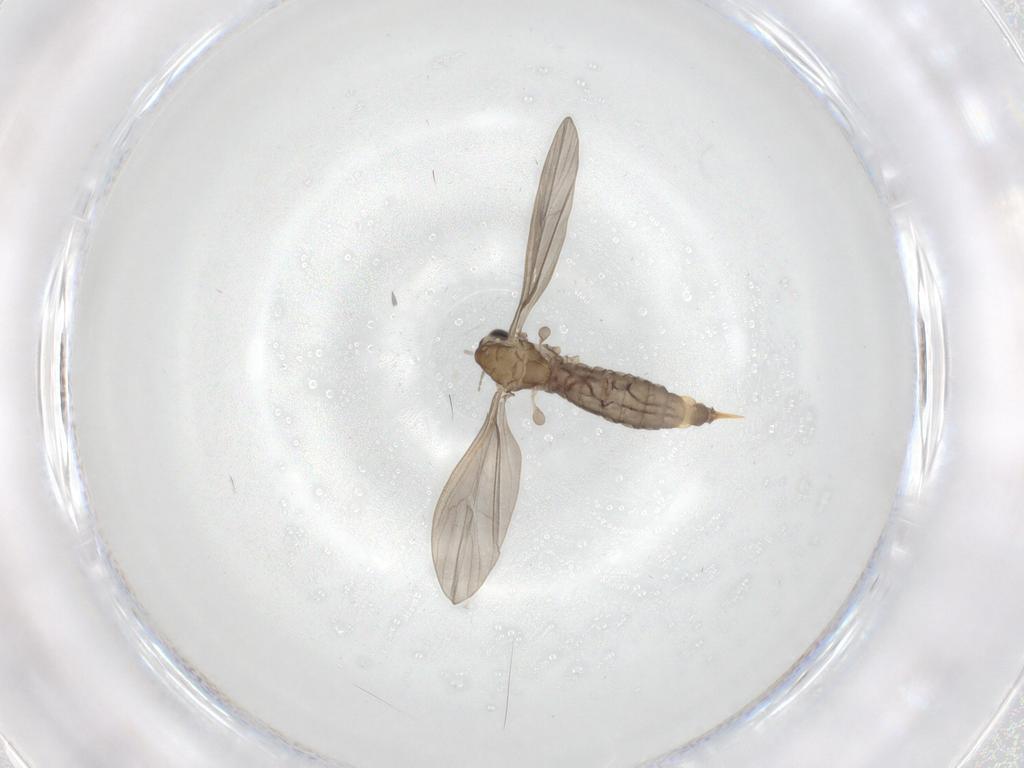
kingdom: Animalia
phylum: Arthropoda
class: Insecta
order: Diptera
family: Limoniidae
